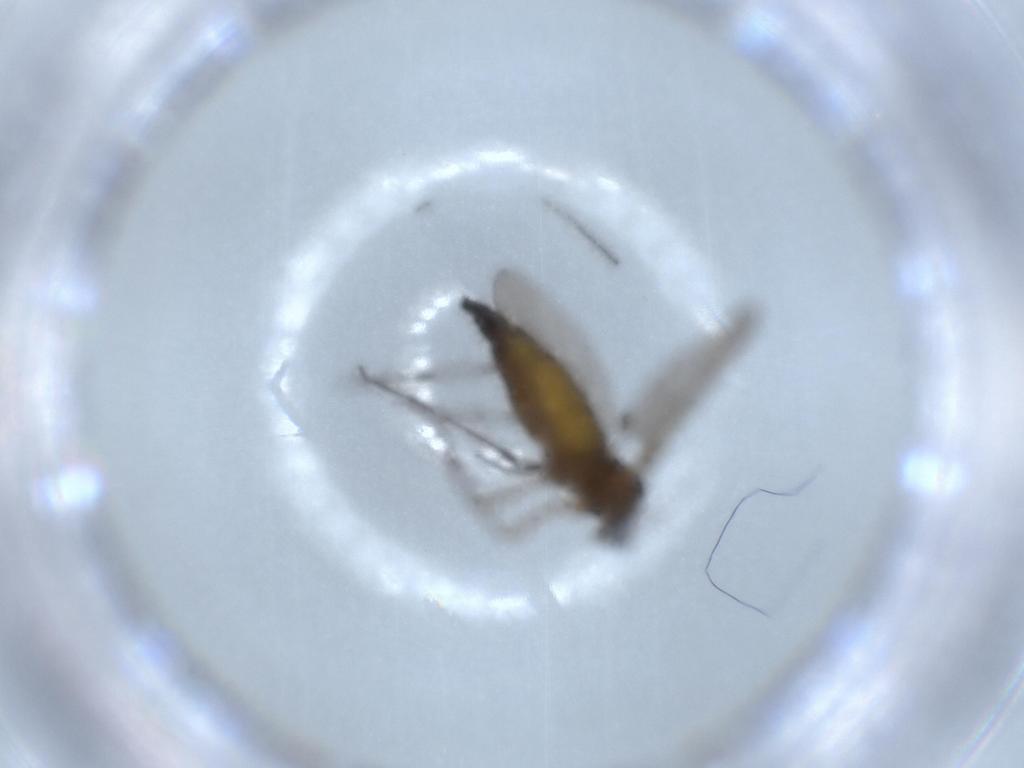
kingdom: Animalia
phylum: Arthropoda
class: Insecta
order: Diptera
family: Sciaridae
